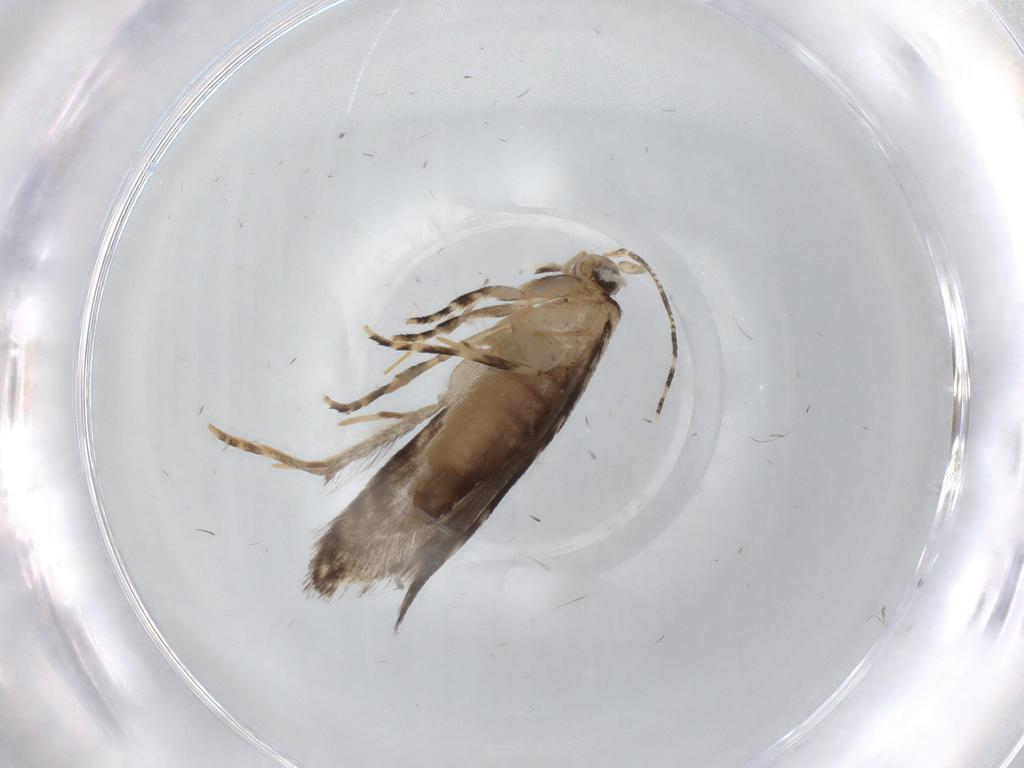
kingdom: Animalia
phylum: Arthropoda
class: Insecta
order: Lepidoptera
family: Tineidae
